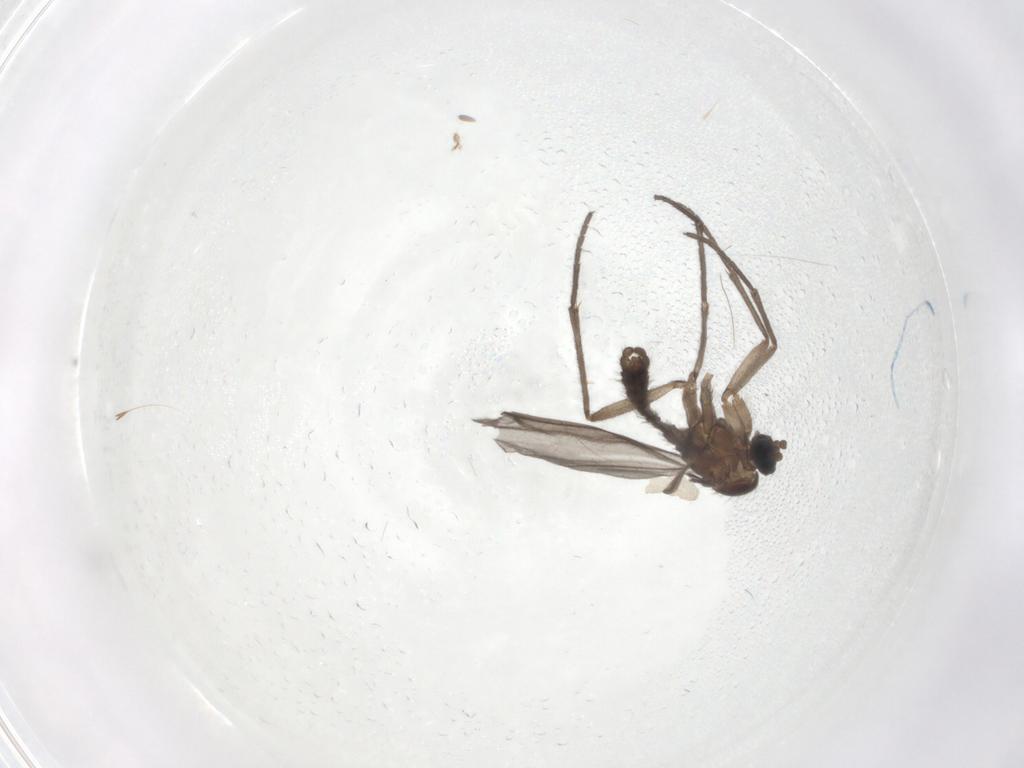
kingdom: Animalia
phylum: Arthropoda
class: Insecta
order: Diptera
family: Sciaridae
